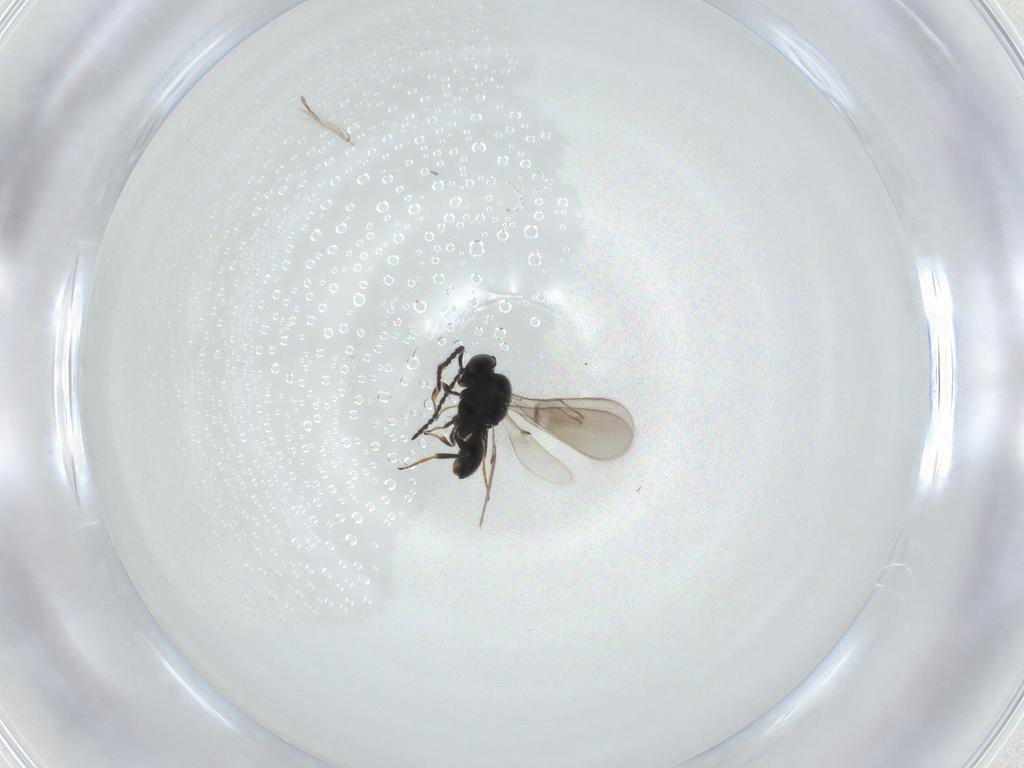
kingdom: Animalia
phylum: Arthropoda
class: Insecta
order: Hymenoptera
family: Scelionidae
